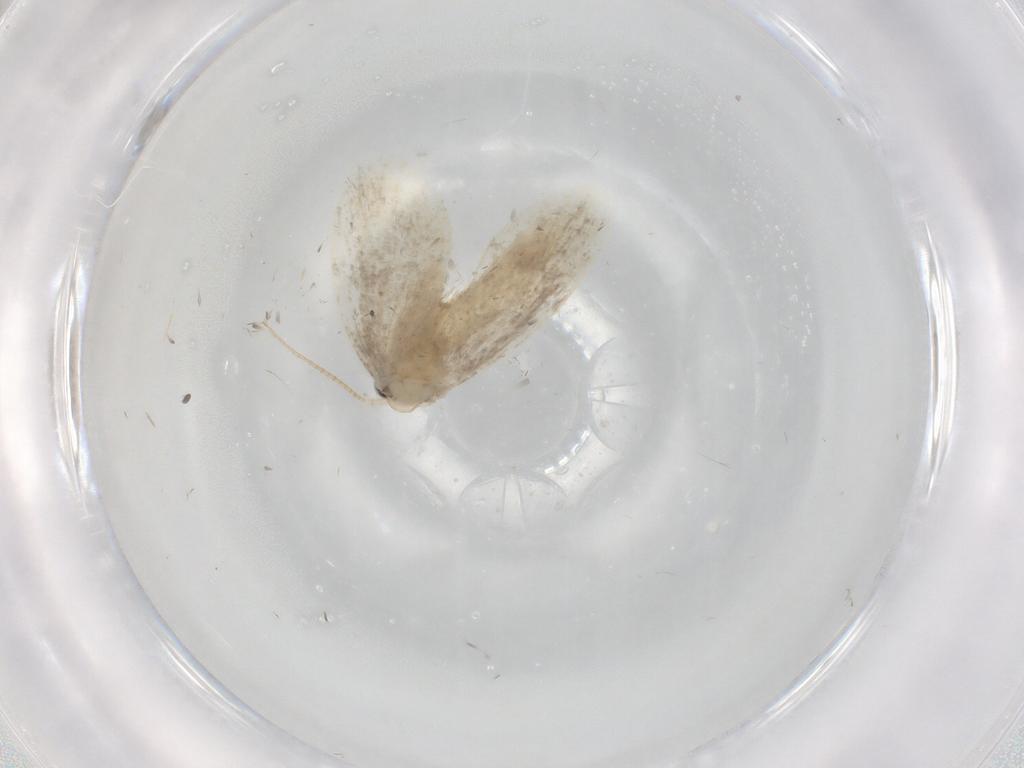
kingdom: Animalia
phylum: Arthropoda
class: Insecta
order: Lepidoptera
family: Psychidae
